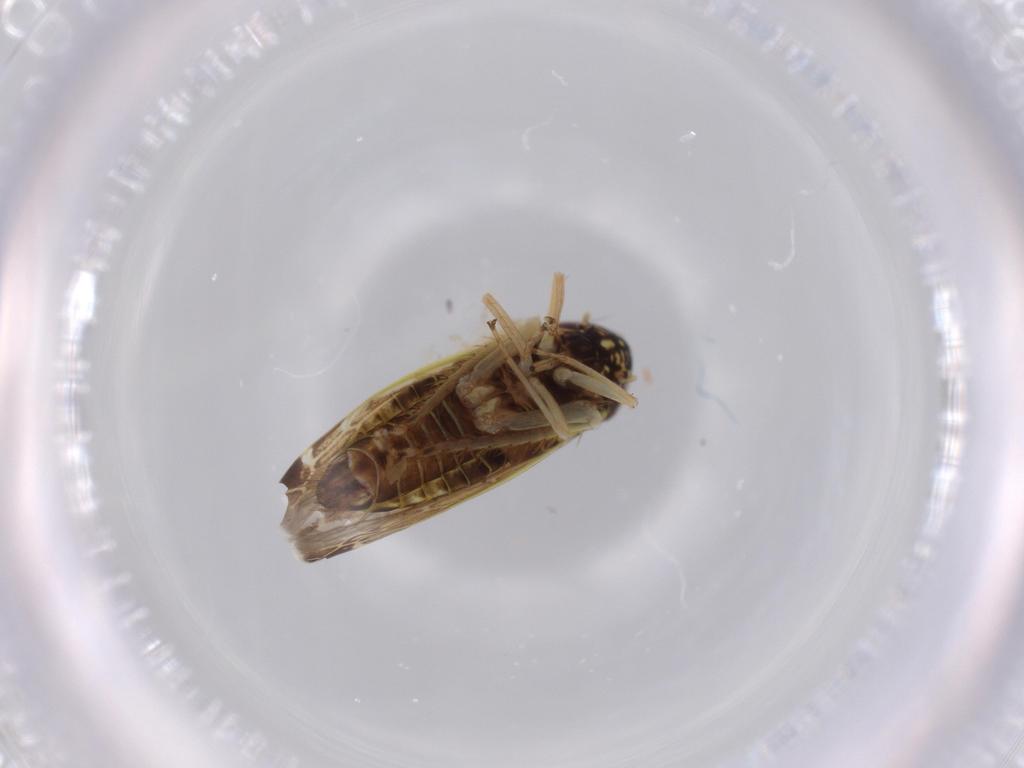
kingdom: Animalia
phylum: Arthropoda
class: Insecta
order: Hemiptera
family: Cicadellidae
